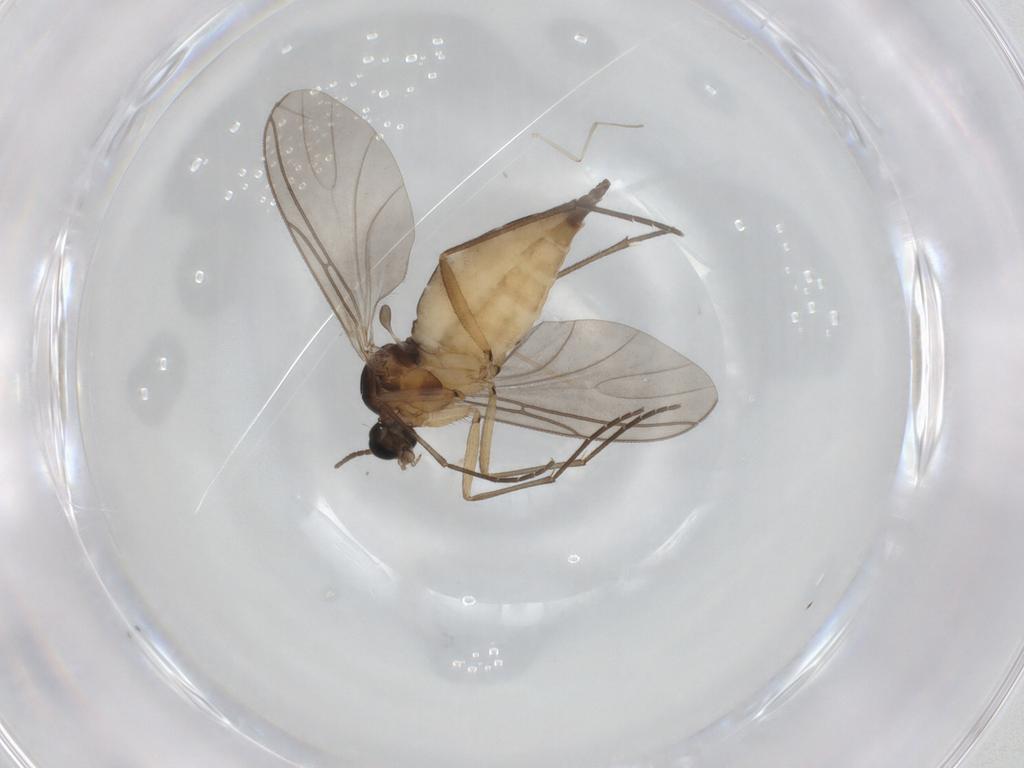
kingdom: Animalia
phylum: Arthropoda
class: Insecta
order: Diptera
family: Sciaridae
